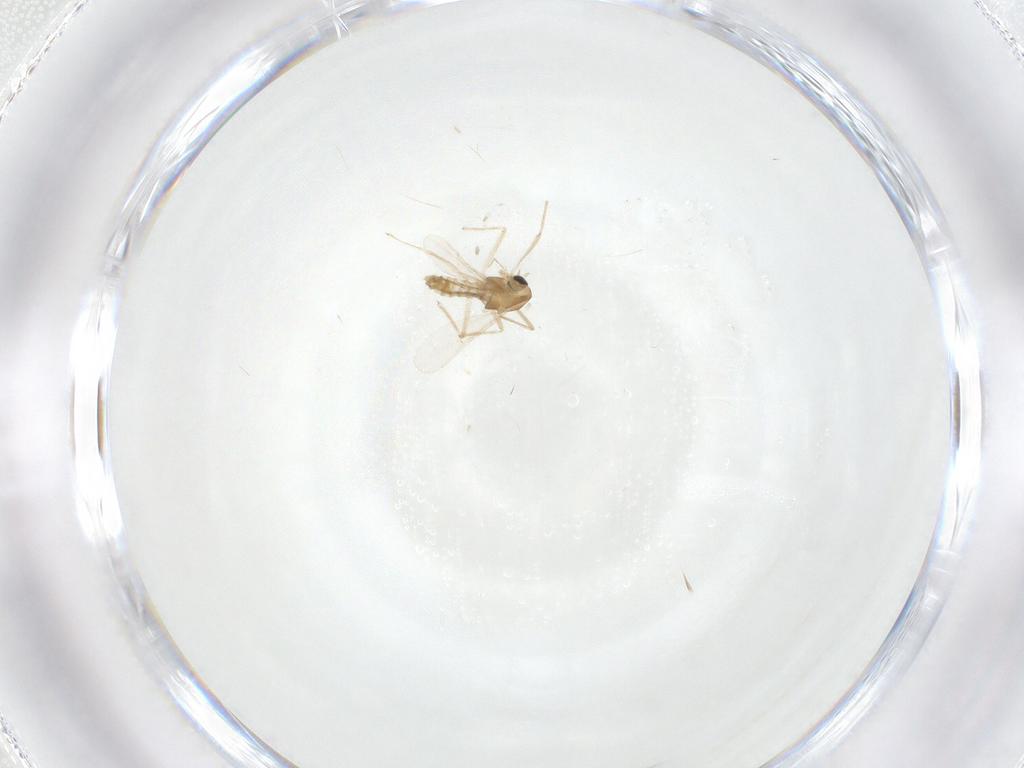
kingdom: Animalia
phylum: Arthropoda
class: Insecta
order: Diptera
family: Chironomidae
